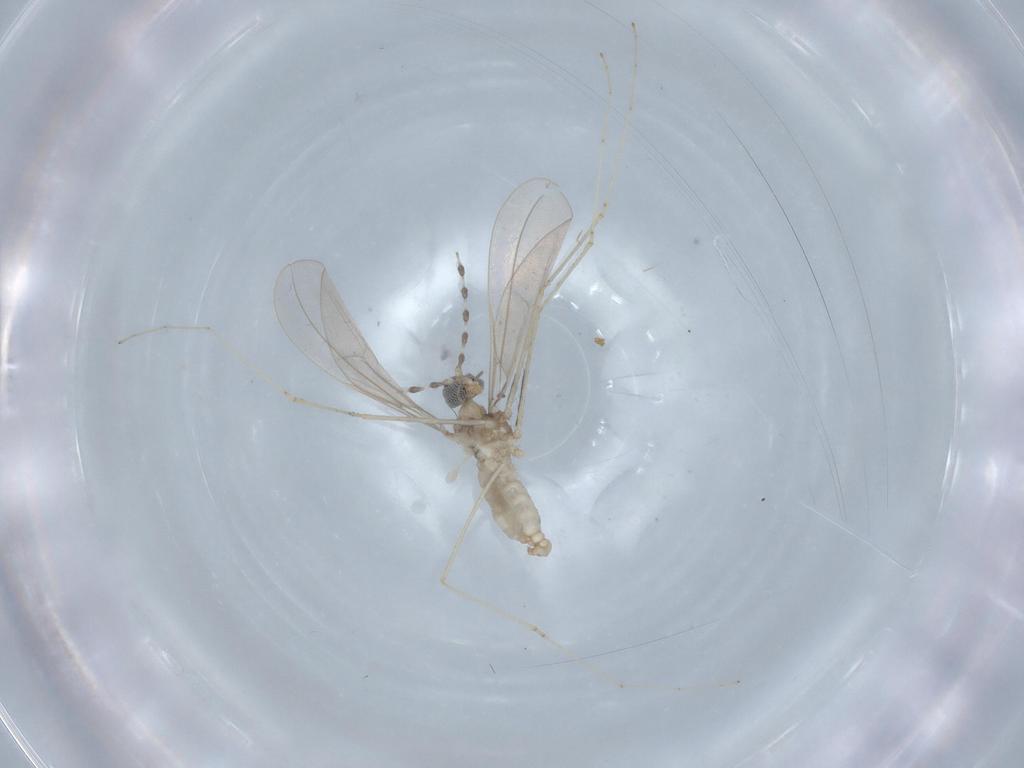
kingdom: Animalia
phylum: Arthropoda
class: Insecta
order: Diptera
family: Cecidomyiidae
